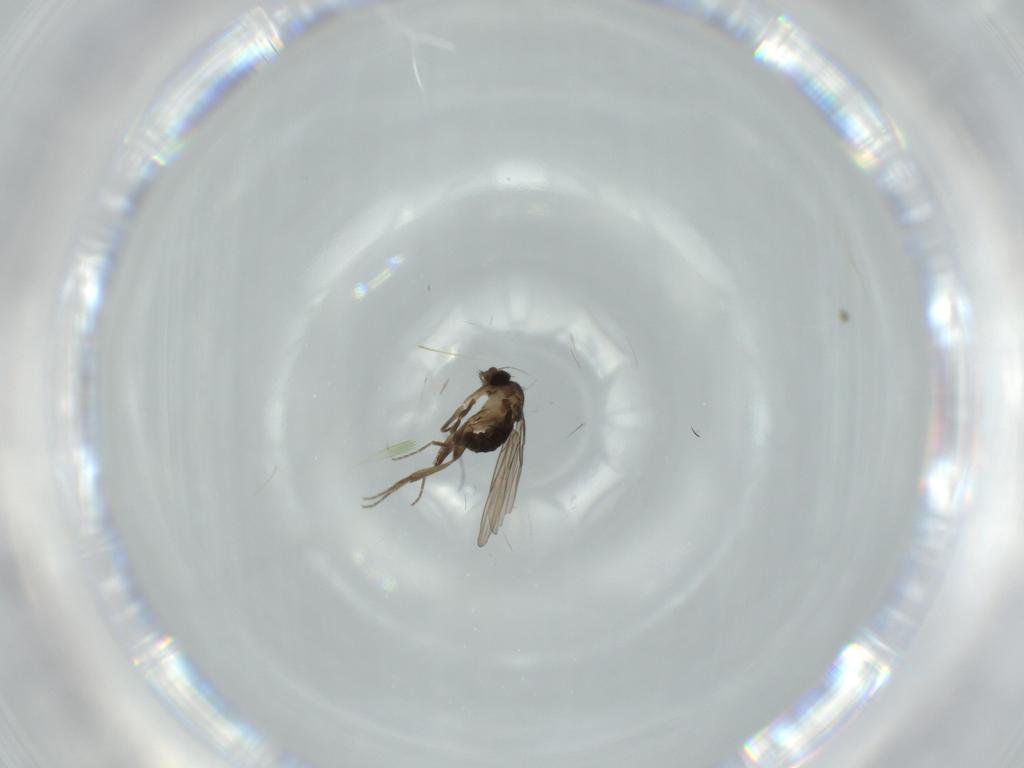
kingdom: Animalia
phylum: Arthropoda
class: Insecta
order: Diptera
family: Phoridae
